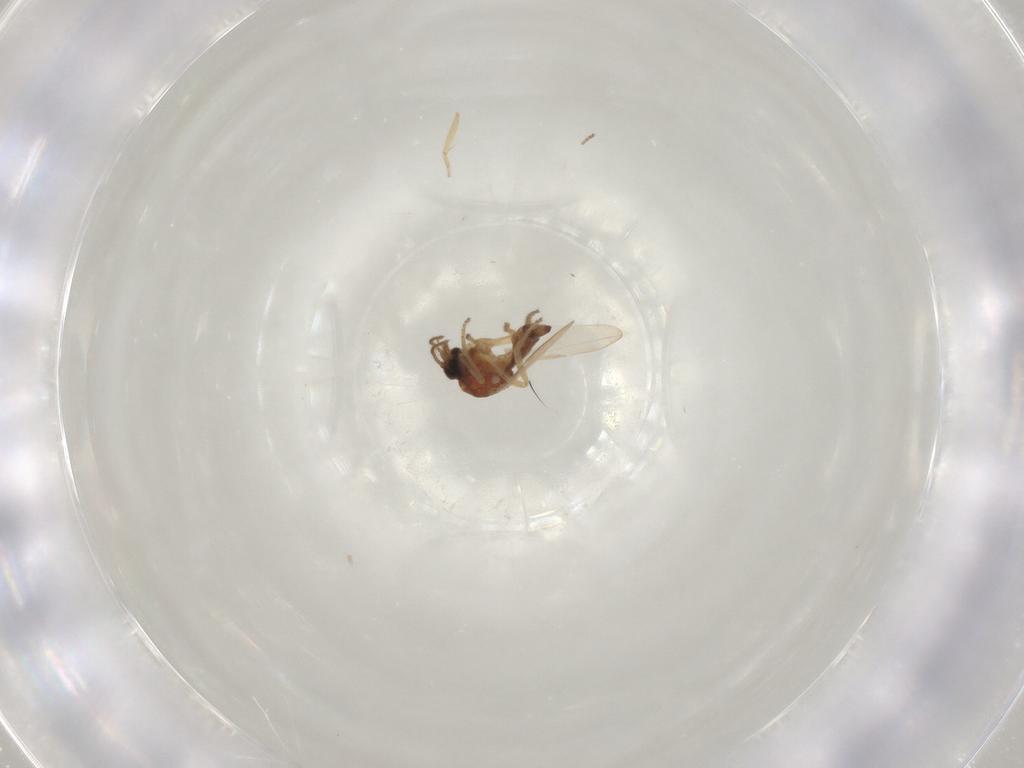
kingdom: Animalia
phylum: Arthropoda
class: Insecta
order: Diptera
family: Ceratopogonidae
